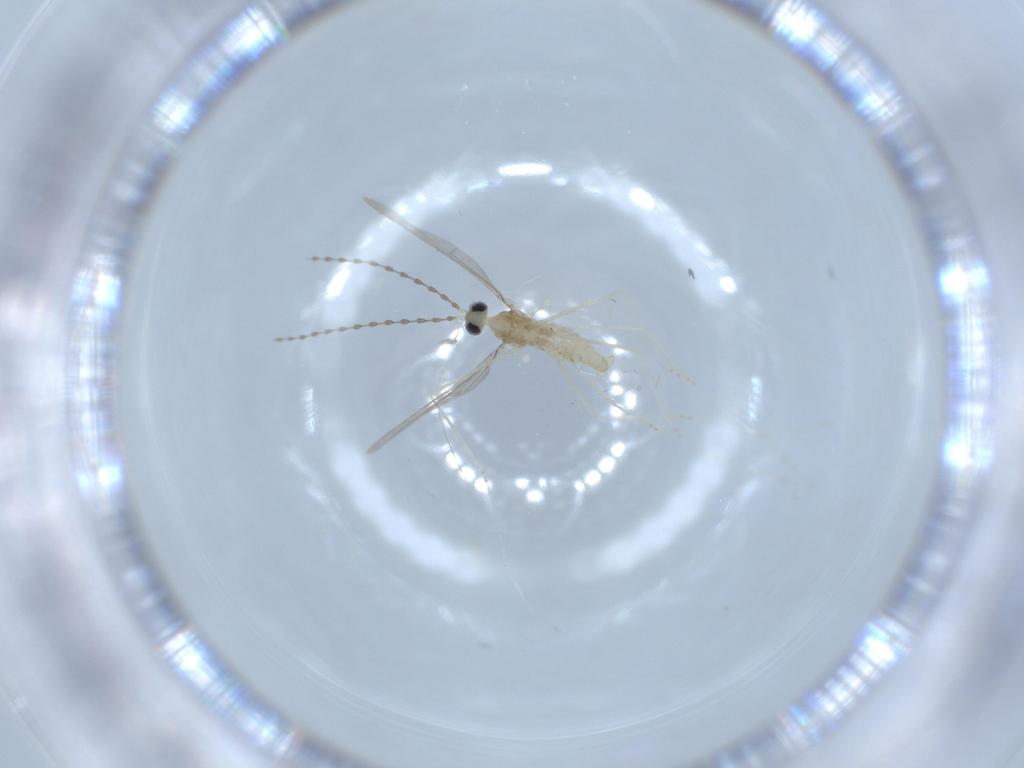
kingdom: Animalia
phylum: Arthropoda
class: Insecta
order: Diptera
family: Cecidomyiidae
